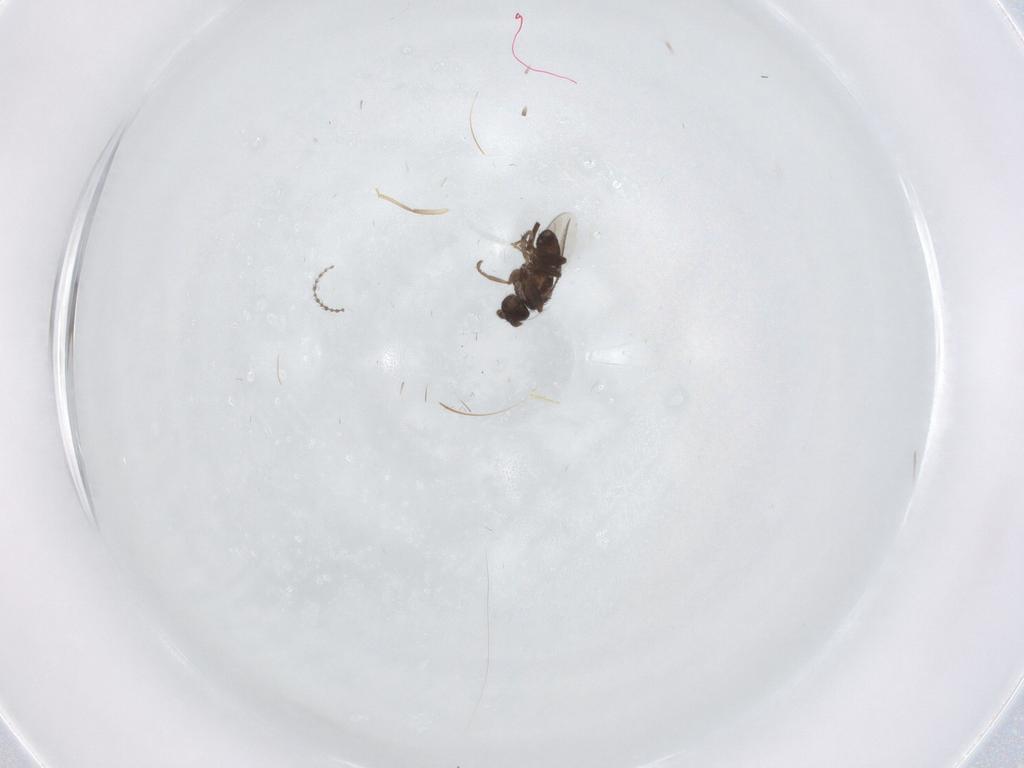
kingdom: Animalia
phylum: Arthropoda
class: Insecta
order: Diptera
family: Chironomidae
